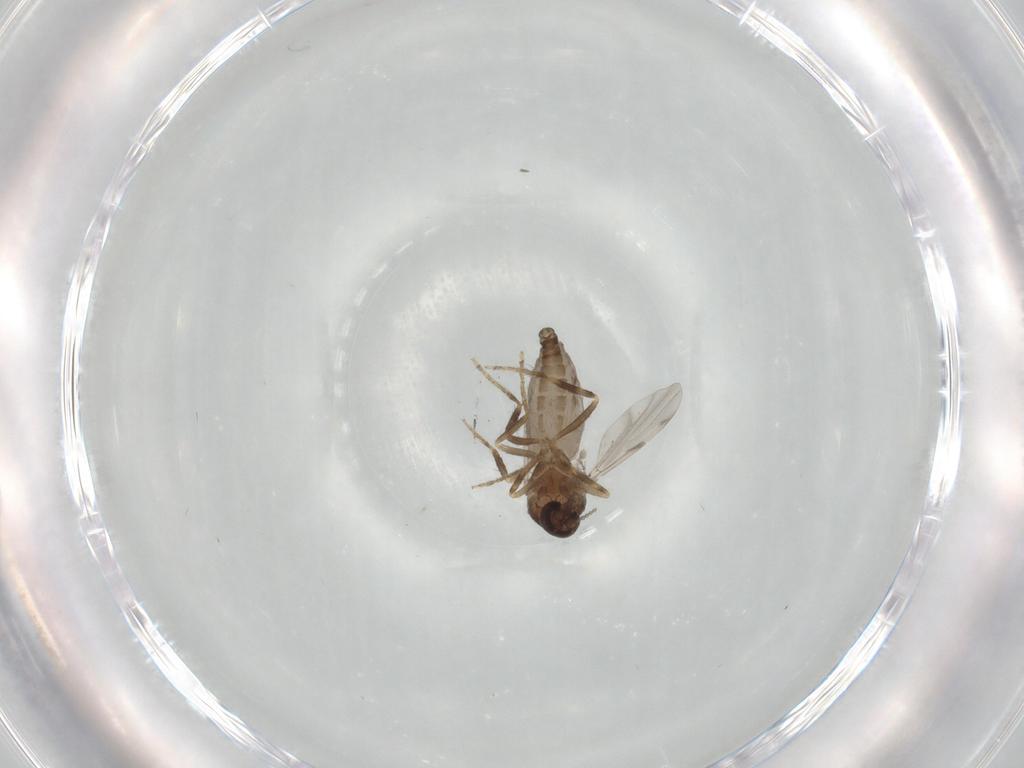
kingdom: Animalia
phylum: Arthropoda
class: Insecta
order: Diptera
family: Ceratopogonidae
